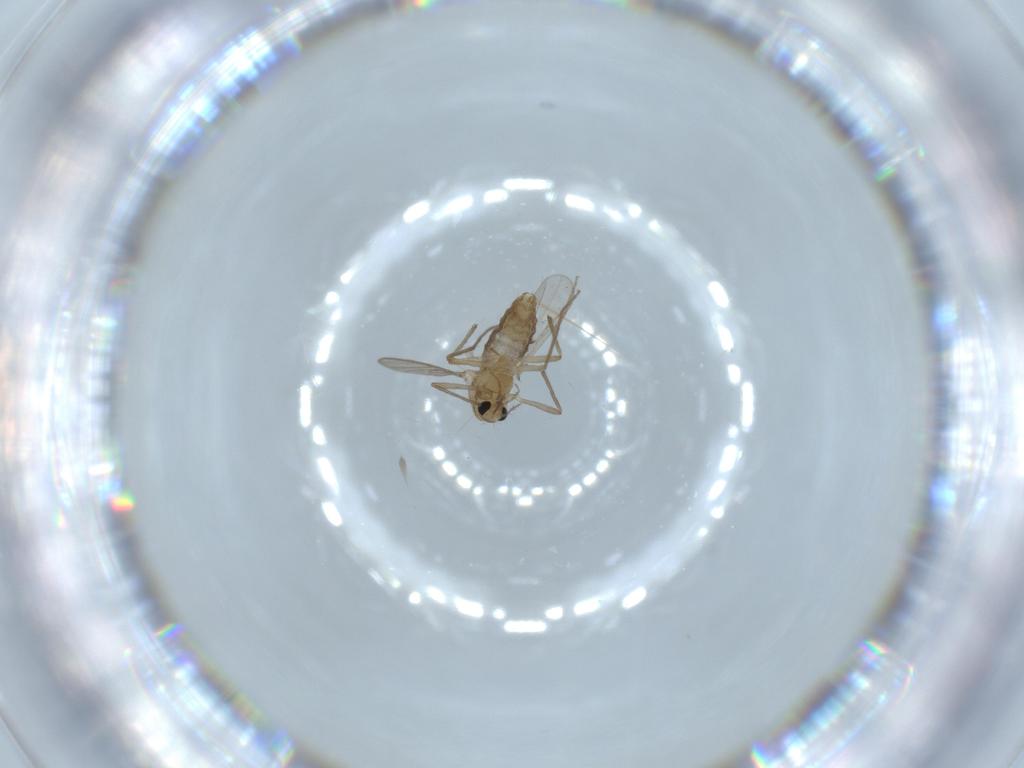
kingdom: Animalia
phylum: Arthropoda
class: Insecta
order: Diptera
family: Chironomidae
